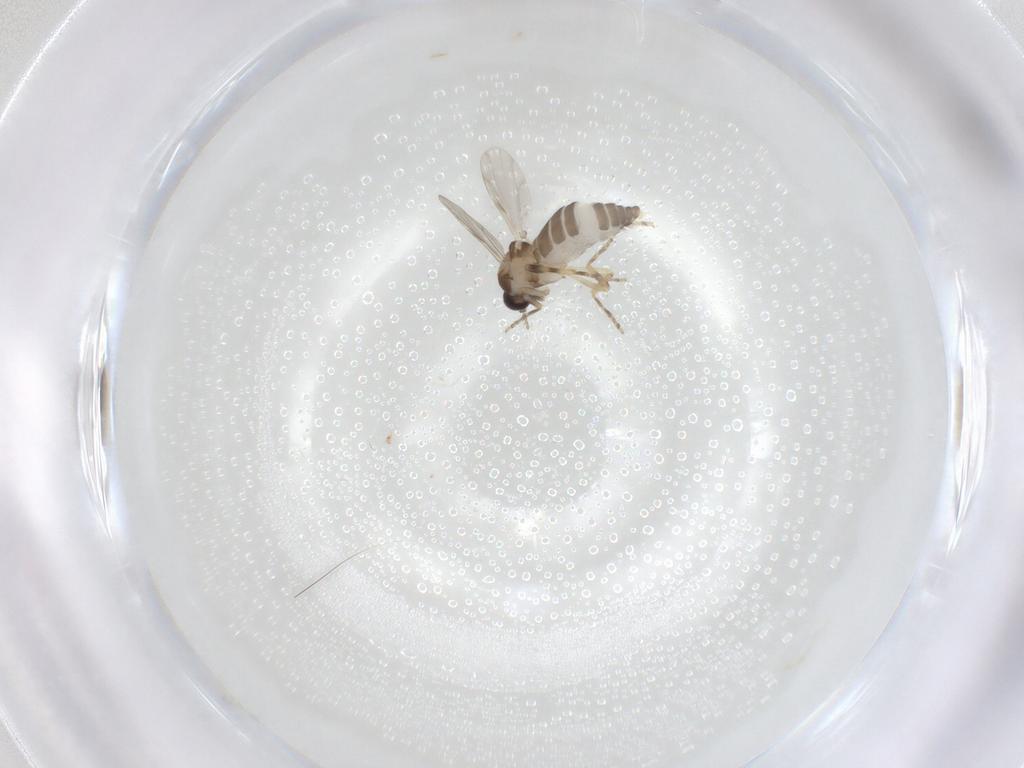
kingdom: Animalia
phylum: Arthropoda
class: Insecta
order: Diptera
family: Ceratopogonidae
